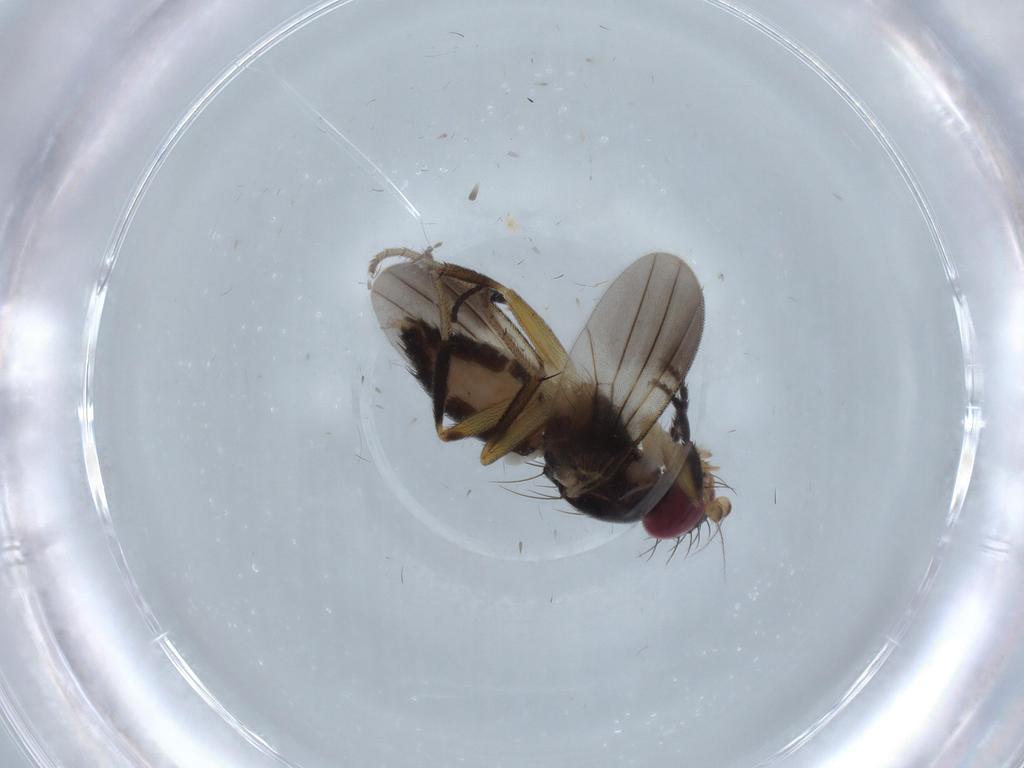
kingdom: Animalia
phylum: Arthropoda
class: Insecta
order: Diptera
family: Clusiidae
